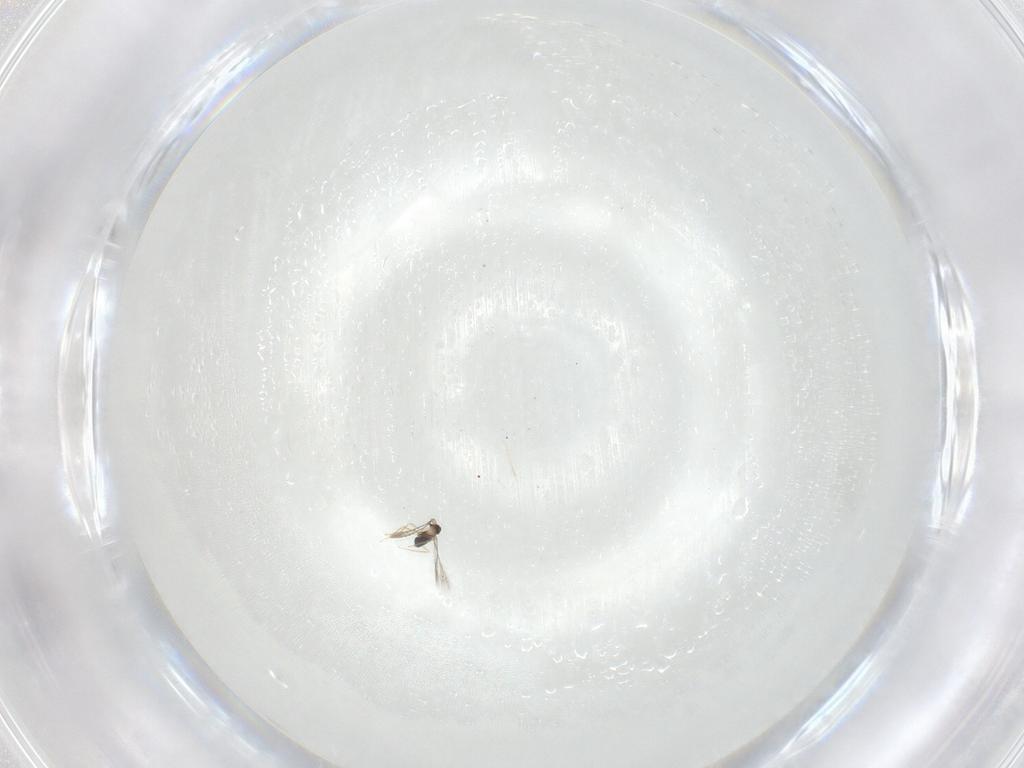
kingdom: Animalia
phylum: Arthropoda
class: Insecta
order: Hymenoptera
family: Mymaridae
